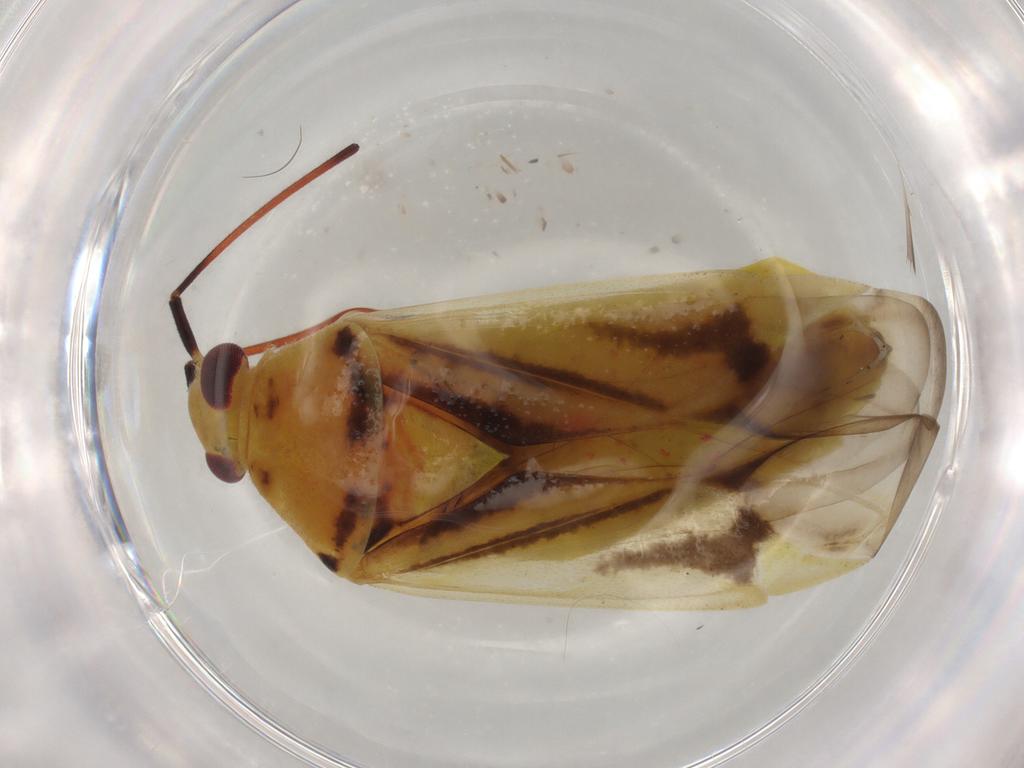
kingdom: Animalia
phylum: Arthropoda
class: Insecta
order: Hemiptera
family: Miridae
